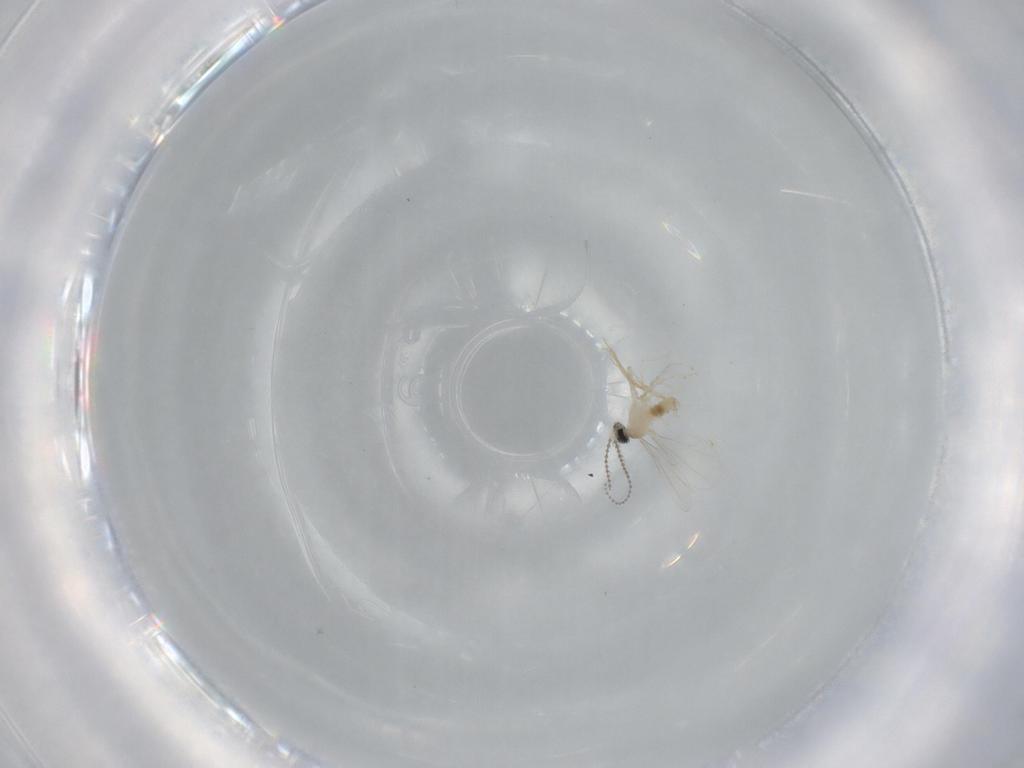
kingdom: Animalia
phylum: Arthropoda
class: Insecta
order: Diptera
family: Cecidomyiidae
